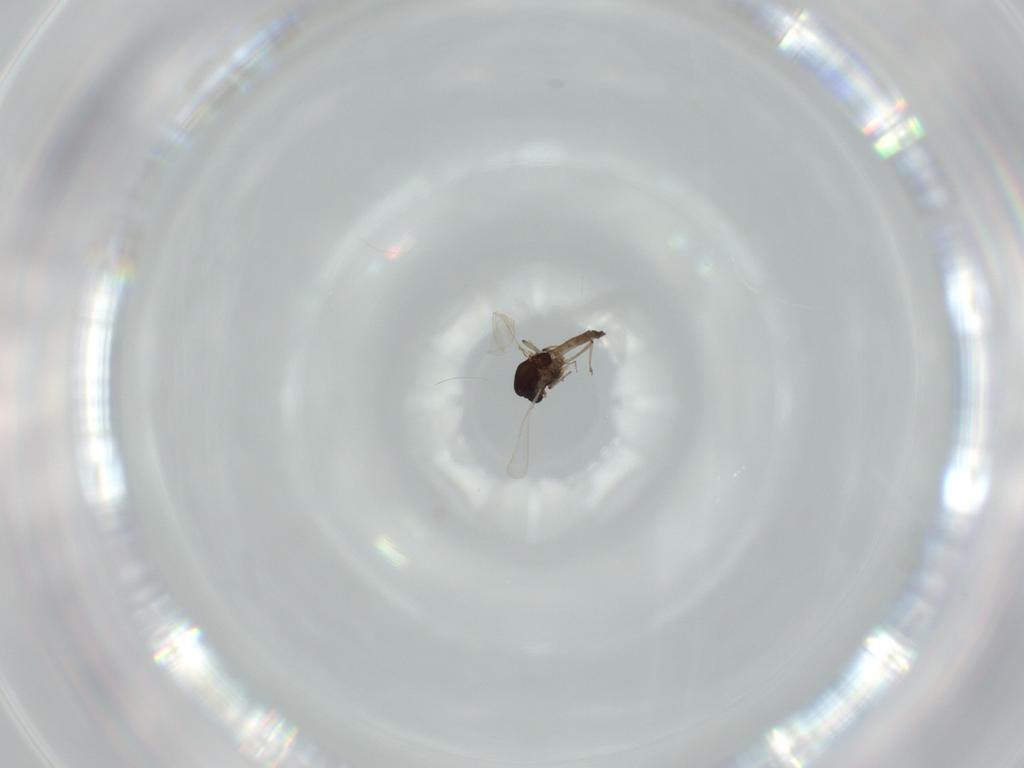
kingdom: Animalia
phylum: Arthropoda
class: Insecta
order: Diptera
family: Chironomidae
